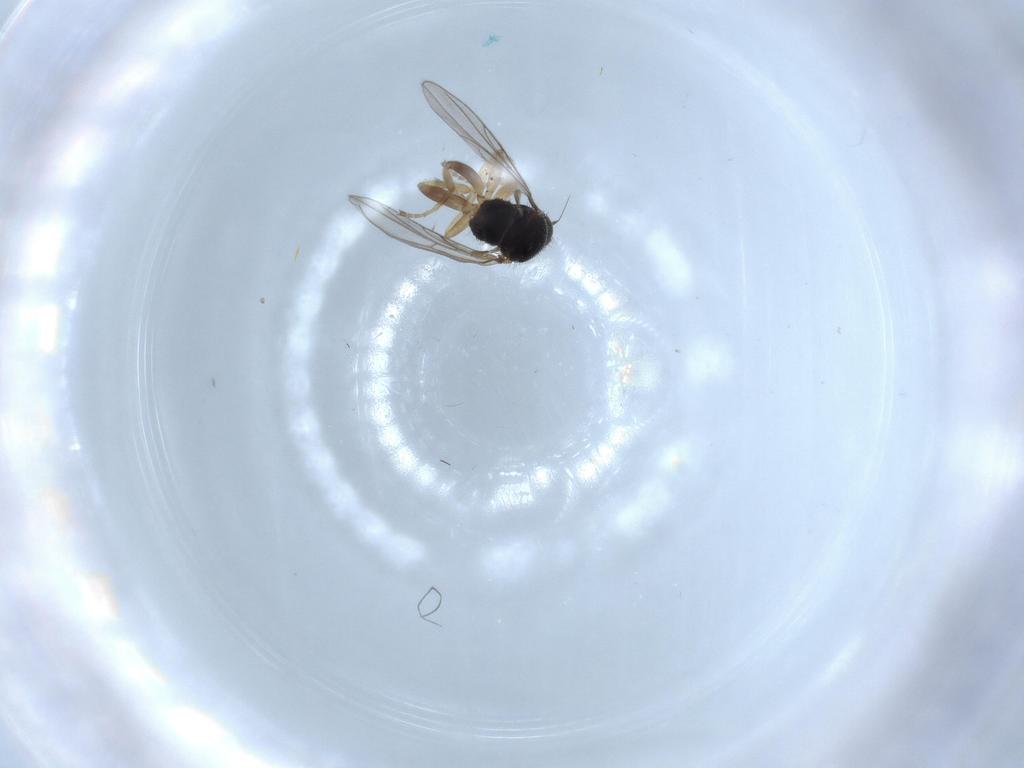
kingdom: Animalia
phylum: Arthropoda
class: Insecta
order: Diptera
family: Hybotidae
